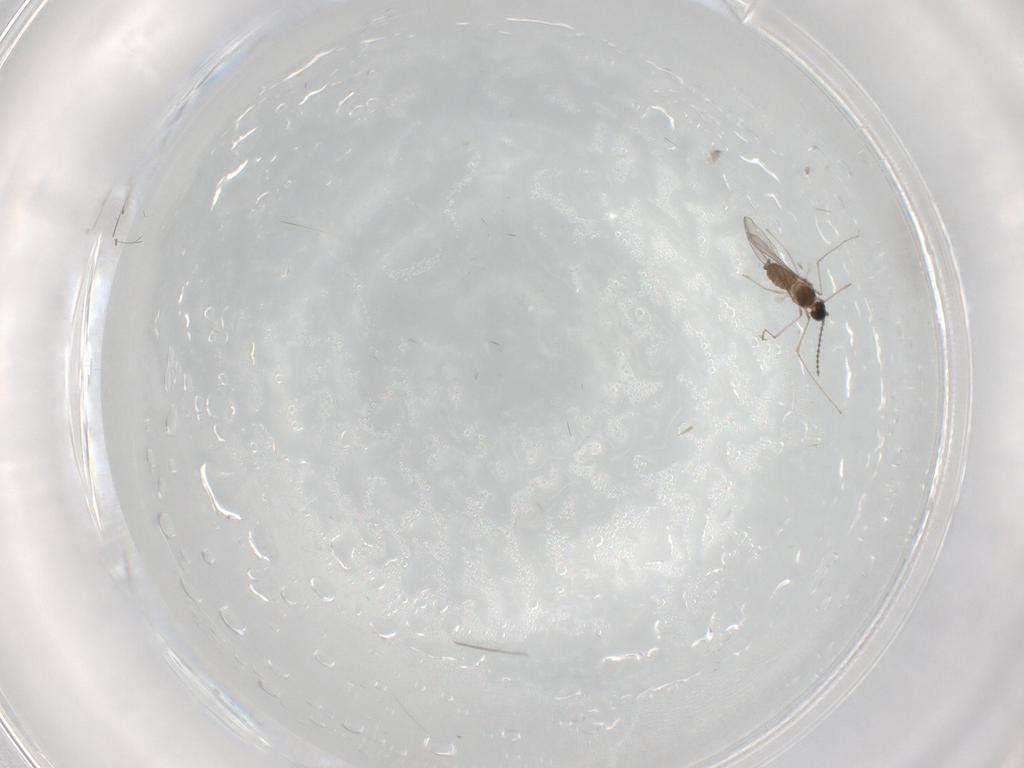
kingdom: Animalia
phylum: Arthropoda
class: Insecta
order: Diptera
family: Cecidomyiidae
